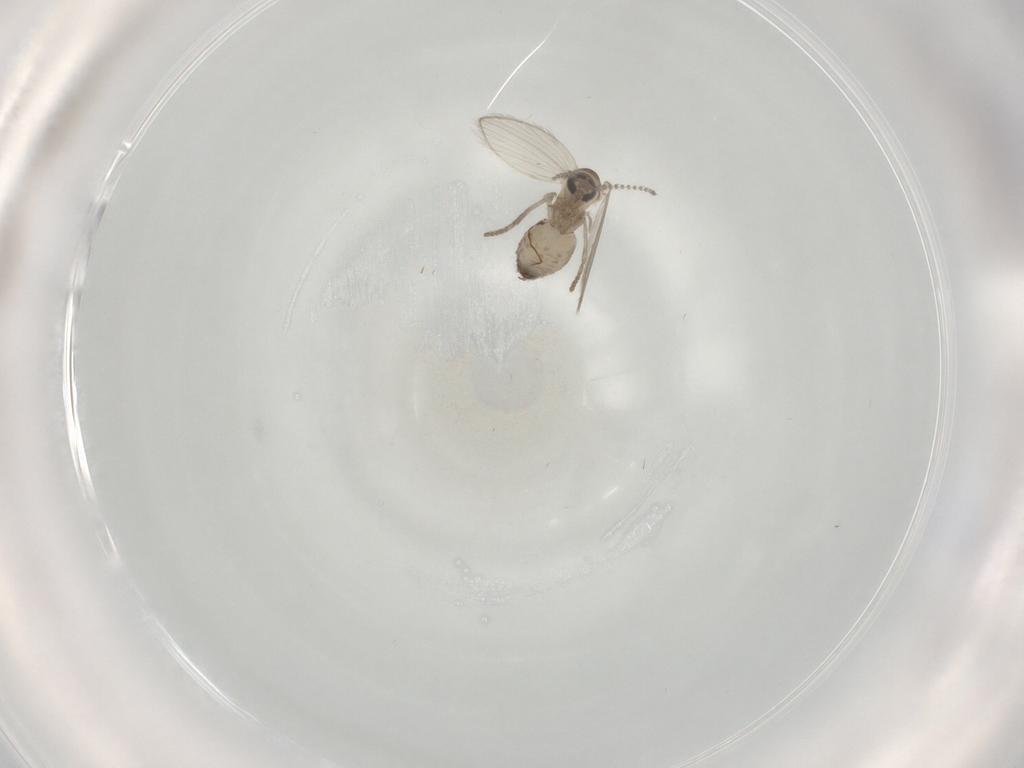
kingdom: Animalia
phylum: Arthropoda
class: Insecta
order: Diptera
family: Psychodidae
